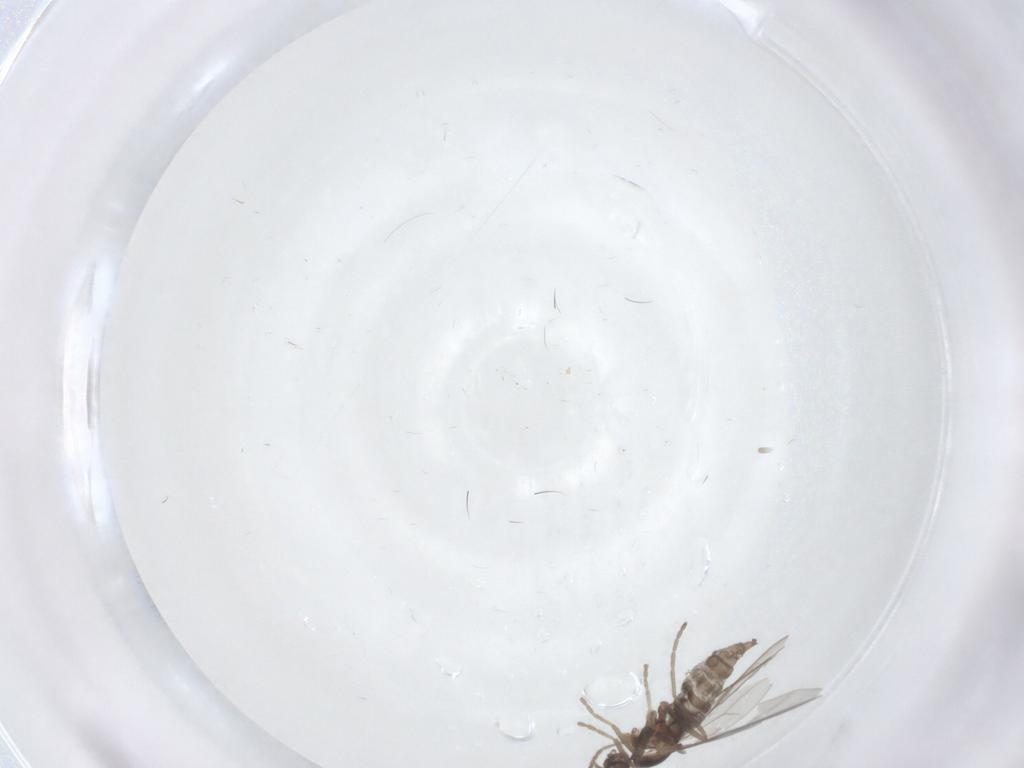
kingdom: Animalia
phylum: Arthropoda
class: Insecta
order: Diptera
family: Cecidomyiidae
